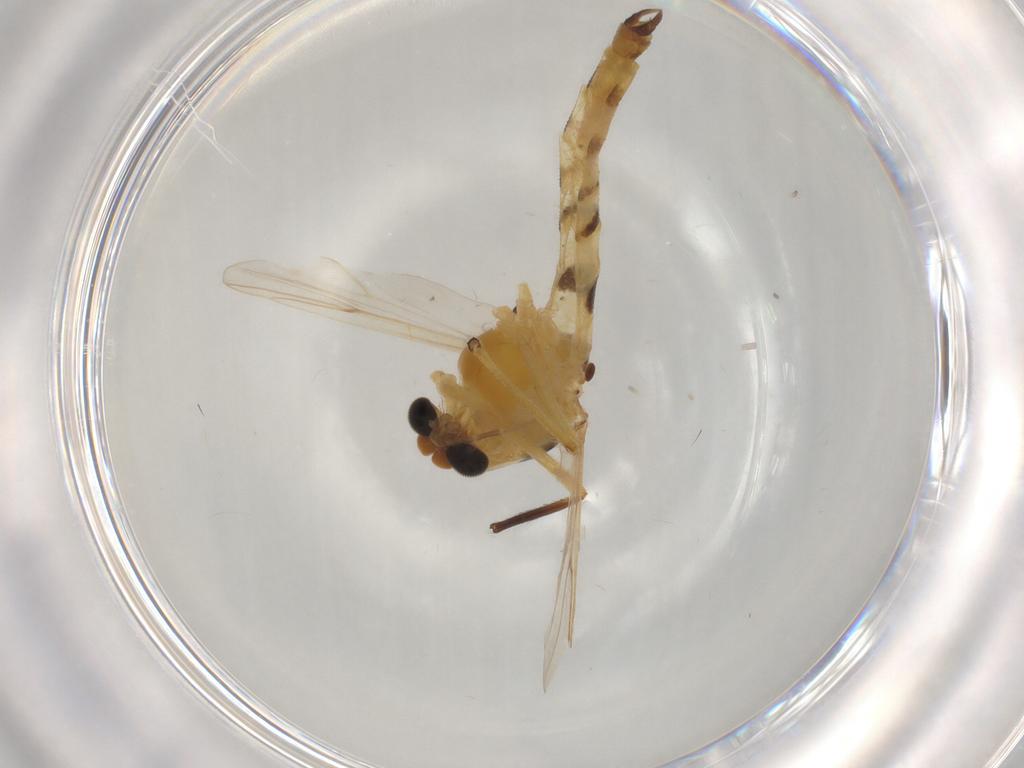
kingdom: Animalia
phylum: Arthropoda
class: Insecta
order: Diptera
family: Chironomidae
